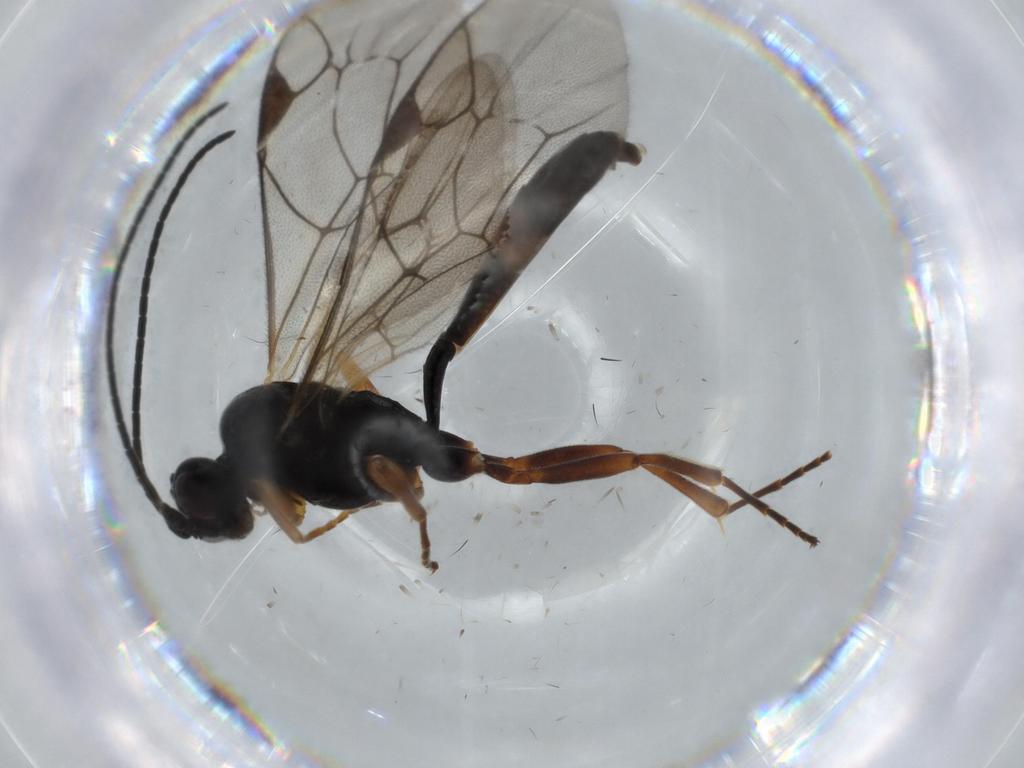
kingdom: Animalia
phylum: Arthropoda
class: Insecta
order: Hymenoptera
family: Ichneumonidae
